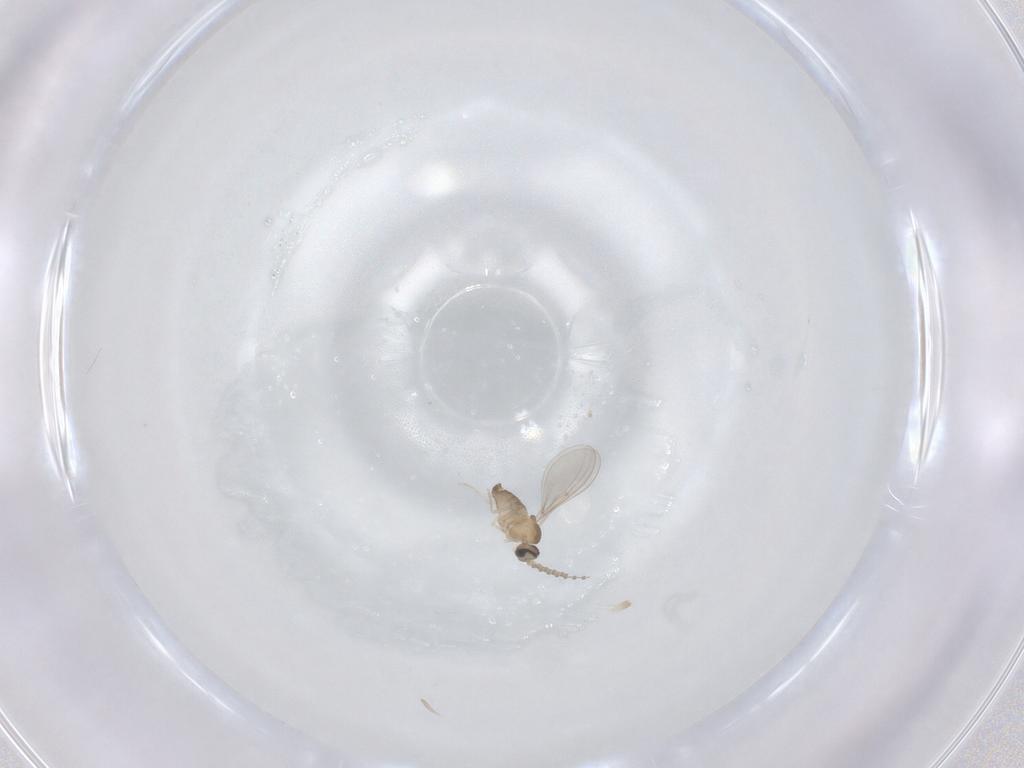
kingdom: Animalia
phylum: Arthropoda
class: Insecta
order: Diptera
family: Cecidomyiidae
